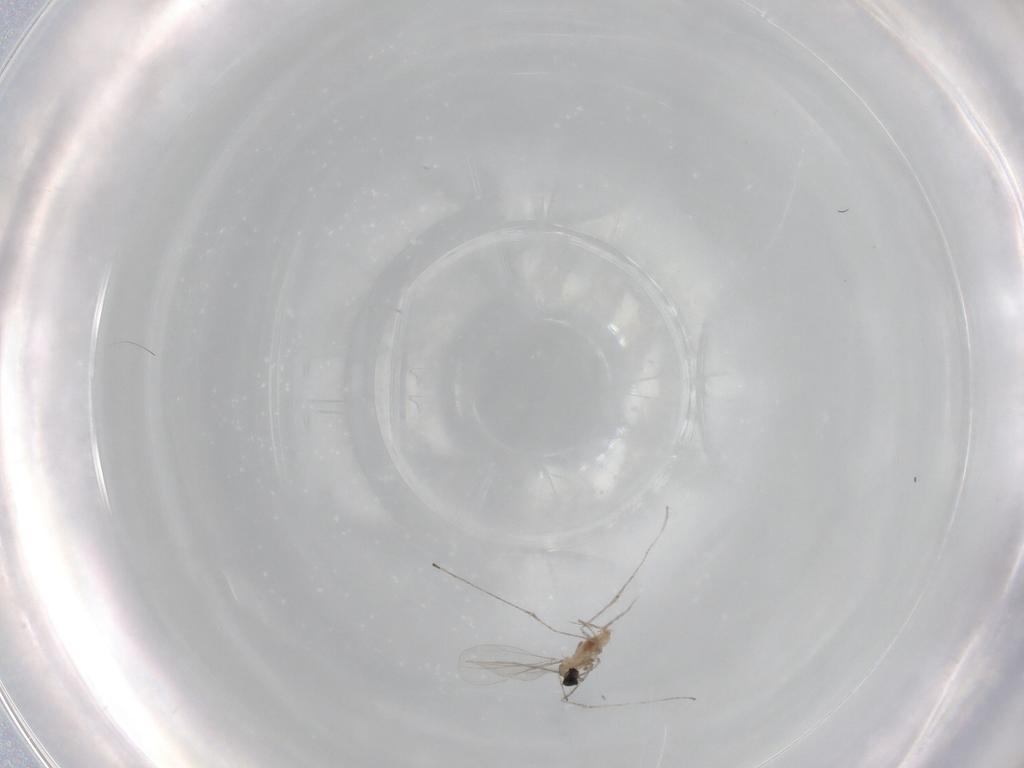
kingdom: Animalia
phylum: Arthropoda
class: Insecta
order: Diptera
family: Cecidomyiidae
